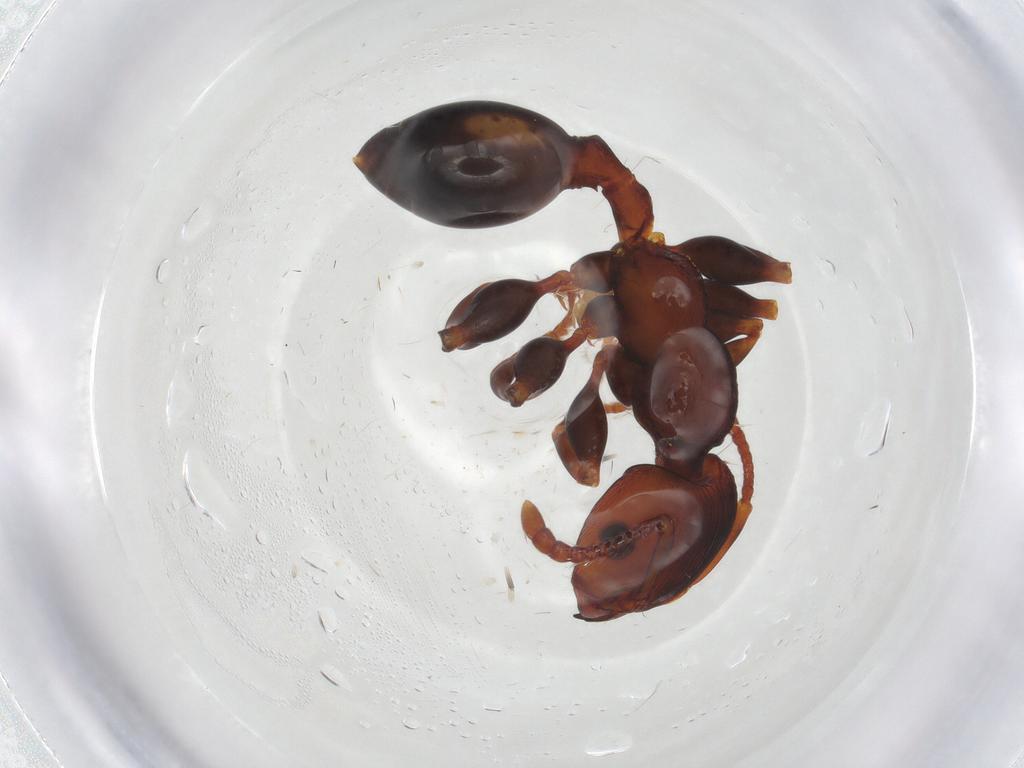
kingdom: Animalia
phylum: Arthropoda
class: Insecta
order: Hymenoptera
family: Formicidae
